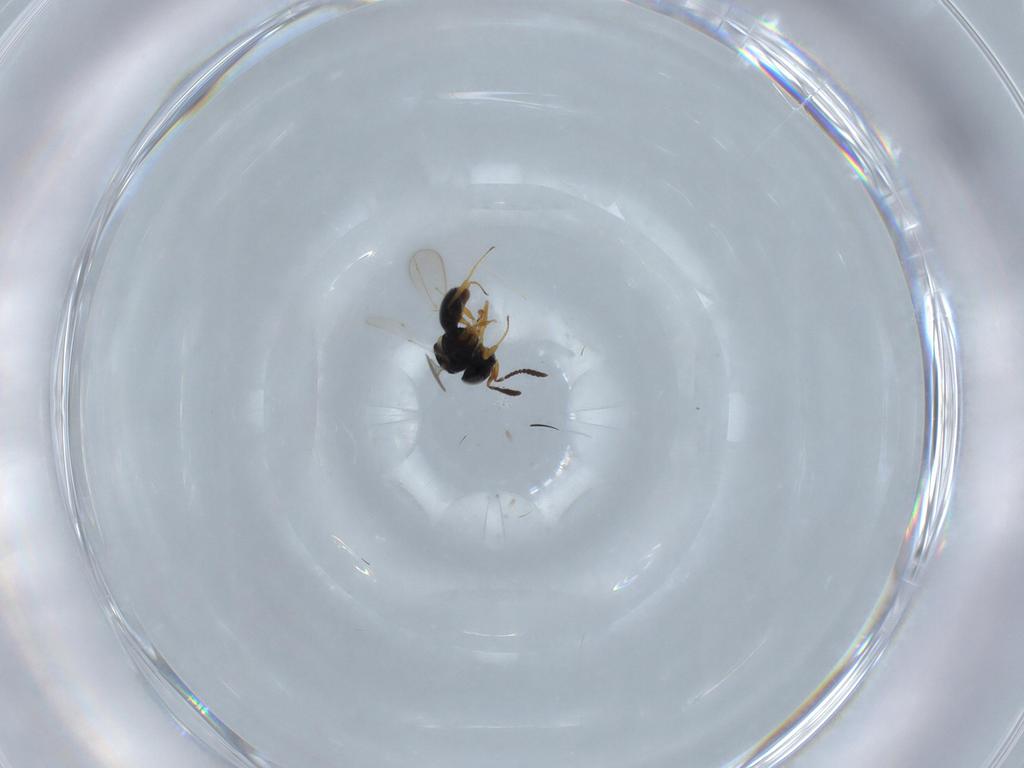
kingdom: Animalia
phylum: Arthropoda
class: Insecta
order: Hymenoptera
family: Scelionidae
